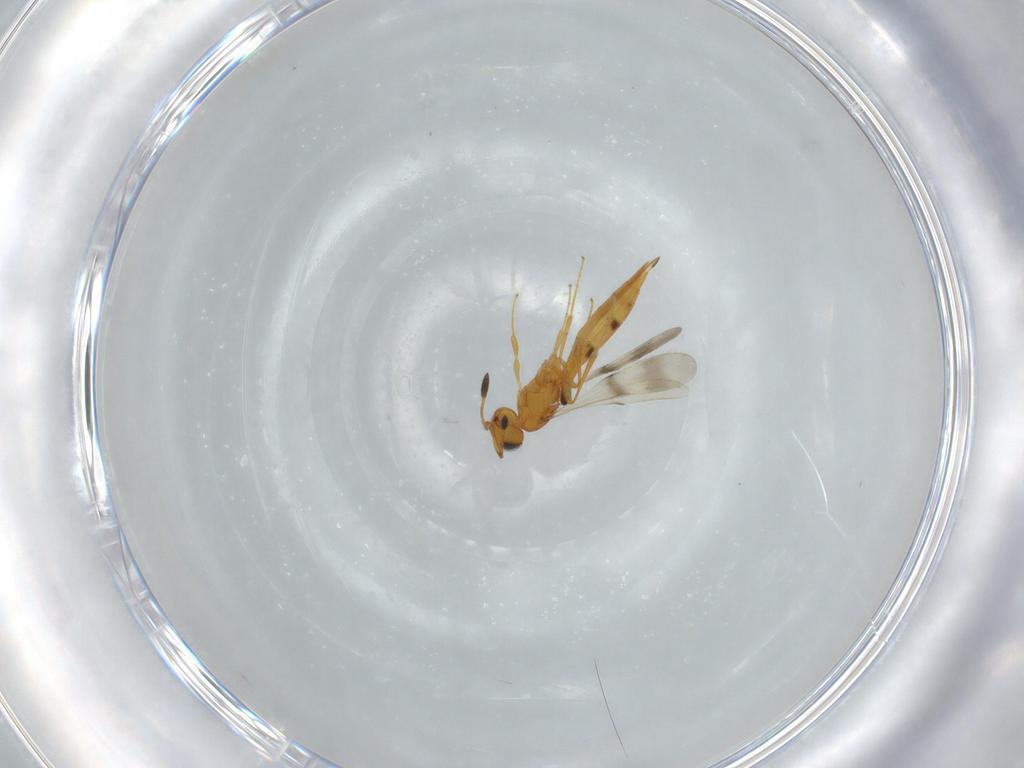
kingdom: Animalia
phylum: Arthropoda
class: Insecta
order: Hymenoptera
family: Scelionidae
